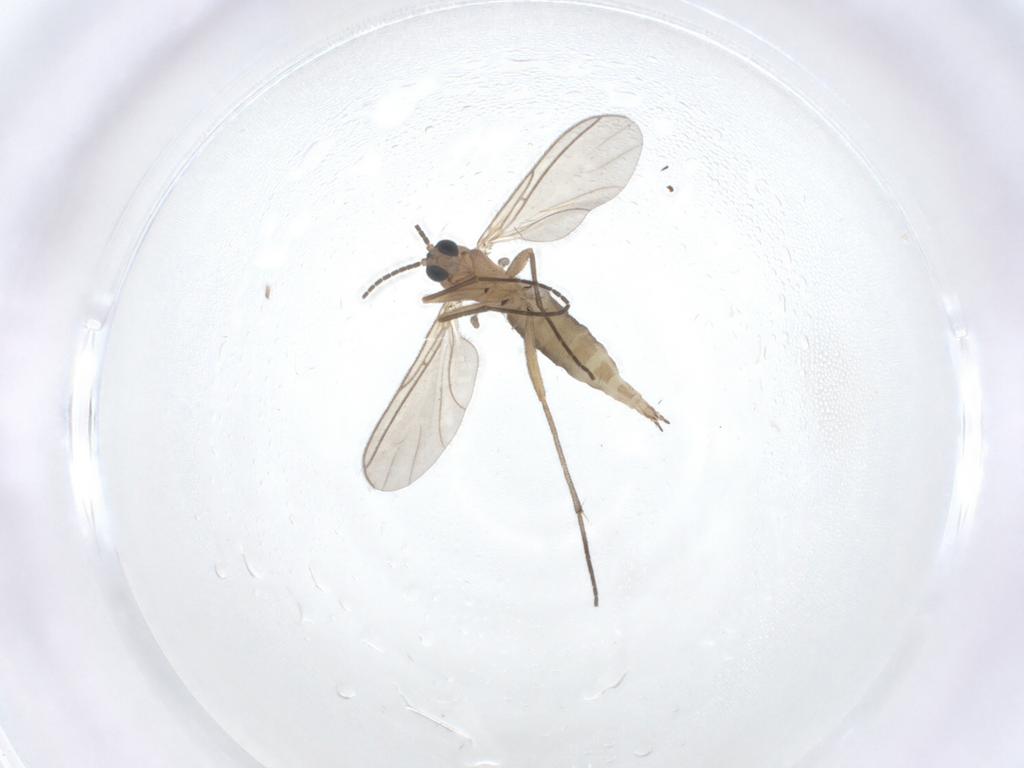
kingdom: Animalia
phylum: Arthropoda
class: Insecta
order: Diptera
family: Sciaridae
